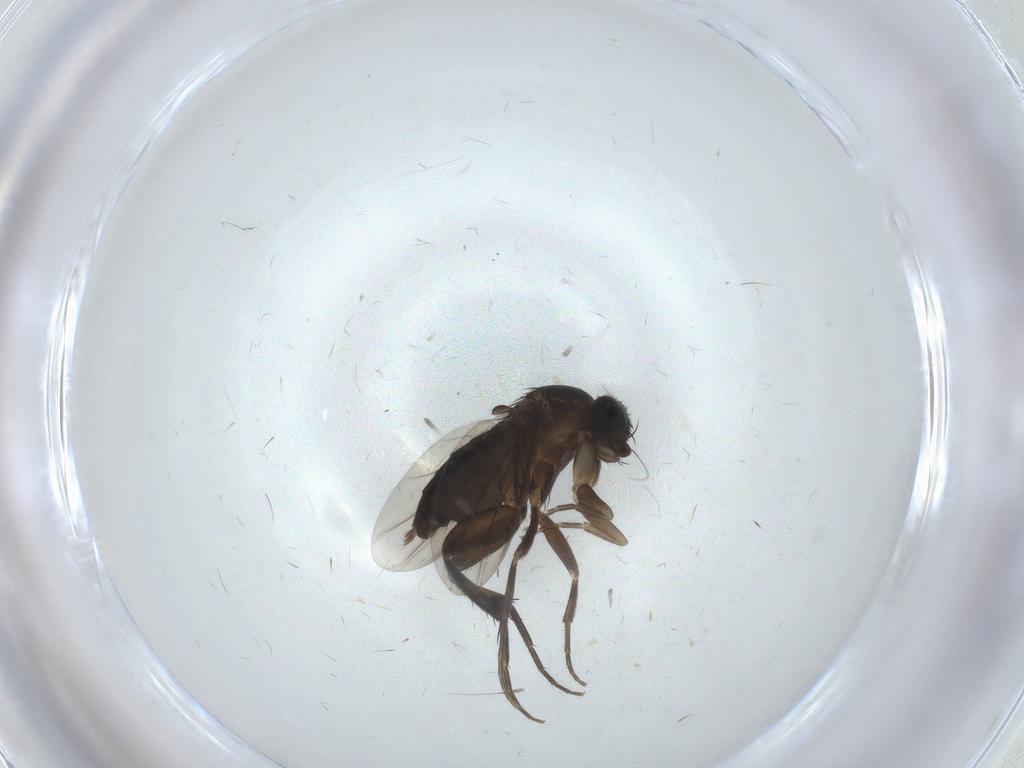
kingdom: Animalia
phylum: Arthropoda
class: Insecta
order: Diptera
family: Phoridae
